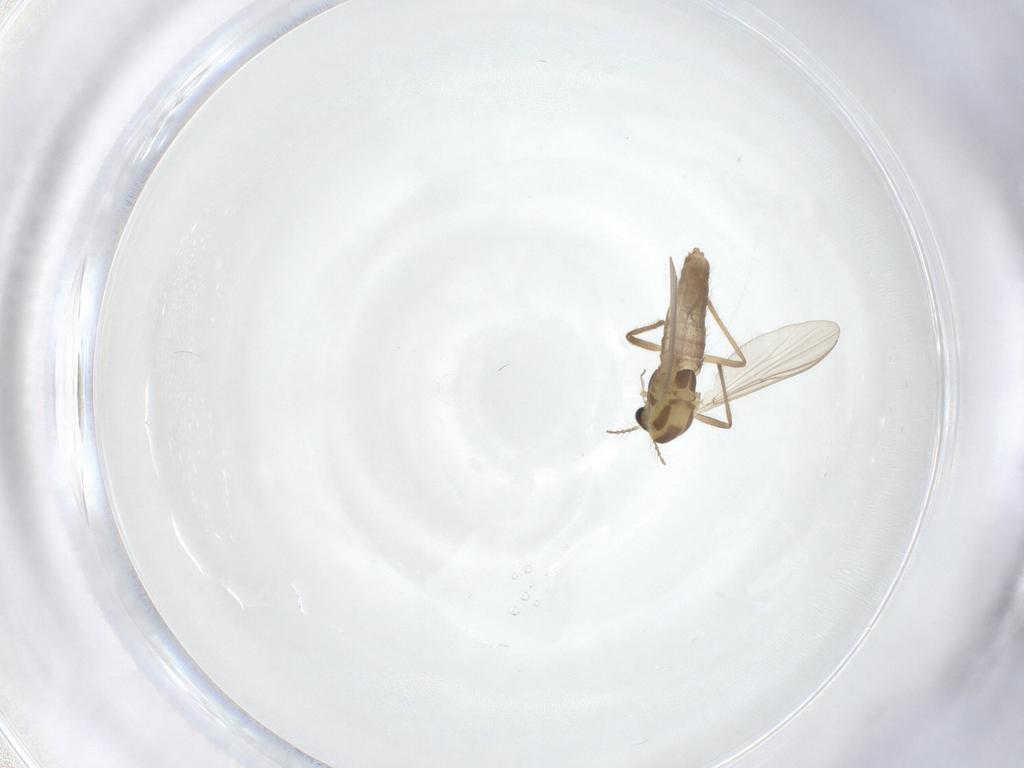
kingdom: Animalia
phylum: Arthropoda
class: Insecta
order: Diptera
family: Chironomidae
